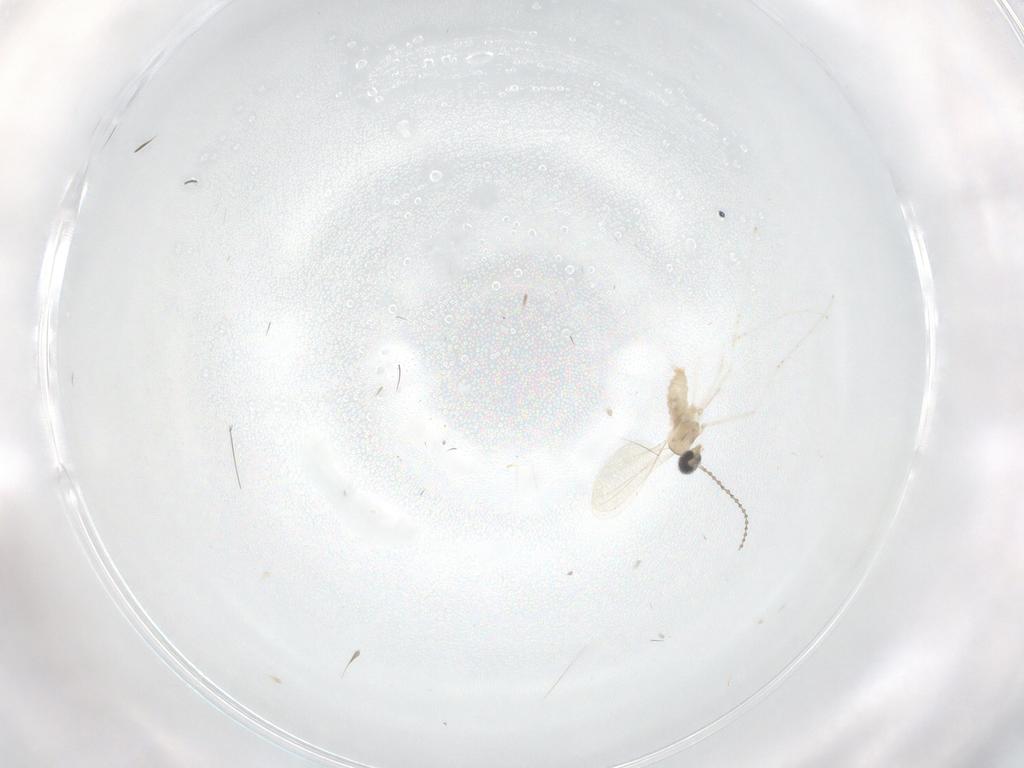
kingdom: Animalia
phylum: Arthropoda
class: Insecta
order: Diptera
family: Cecidomyiidae
